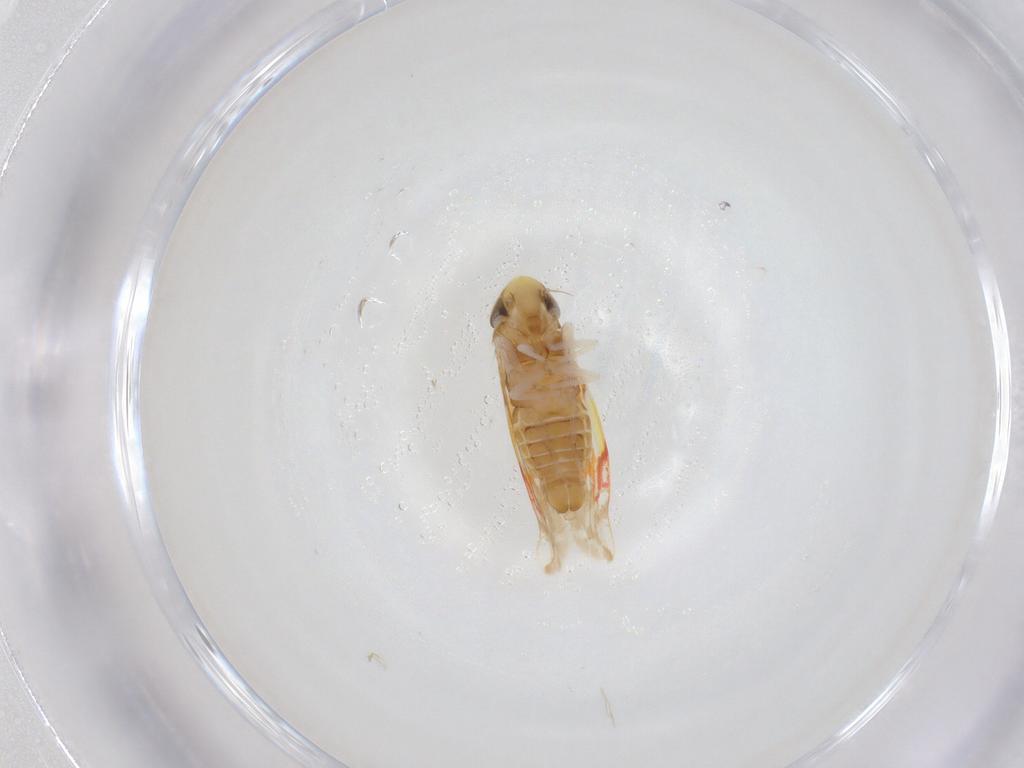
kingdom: Animalia
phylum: Arthropoda
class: Insecta
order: Hemiptera
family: Cicadellidae
